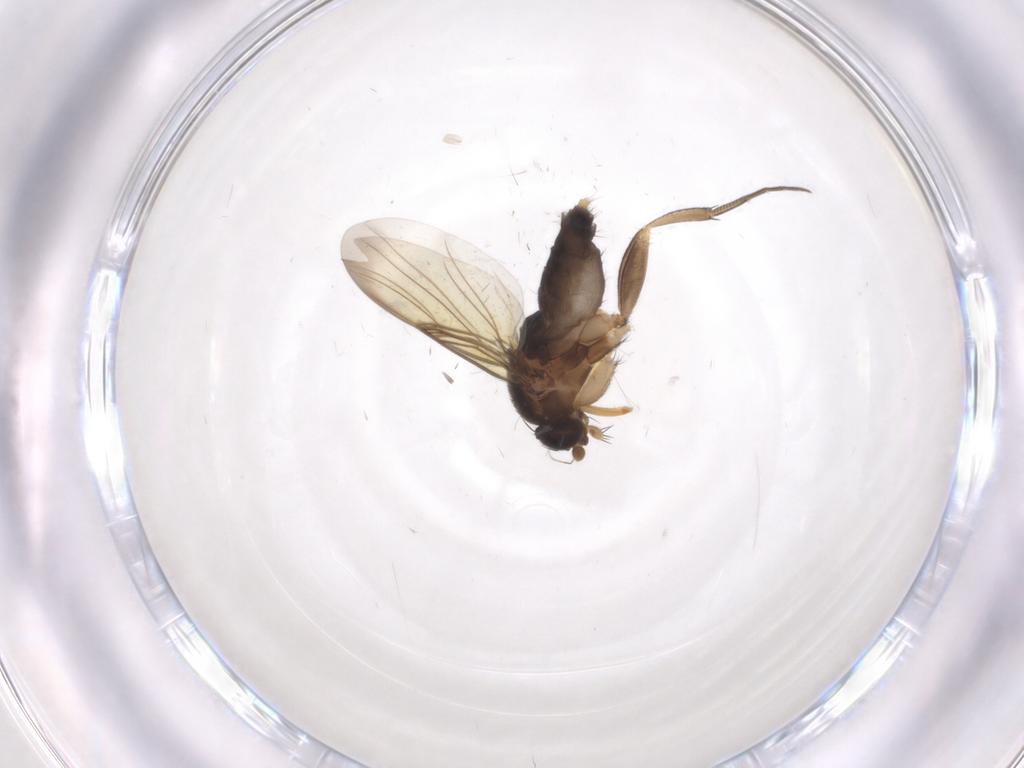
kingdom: Animalia
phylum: Arthropoda
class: Insecta
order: Diptera
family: Phoridae
